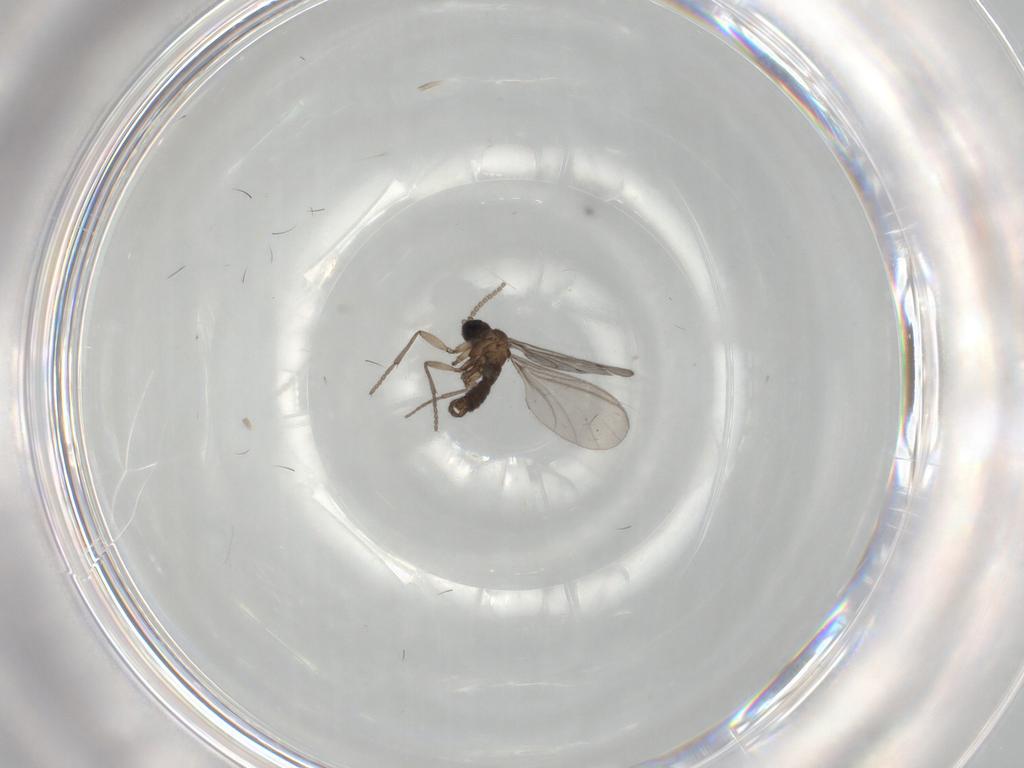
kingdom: Animalia
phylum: Arthropoda
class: Insecta
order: Diptera
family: Sciaridae
